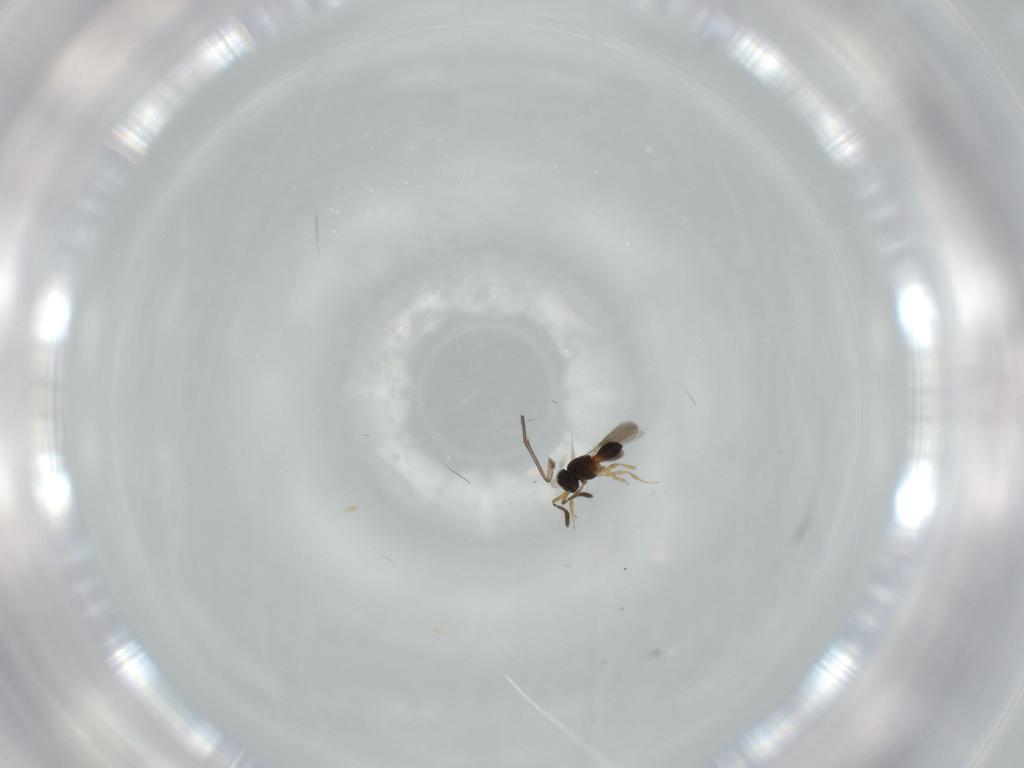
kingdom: Animalia
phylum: Arthropoda
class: Insecta
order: Hymenoptera
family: Scelionidae
